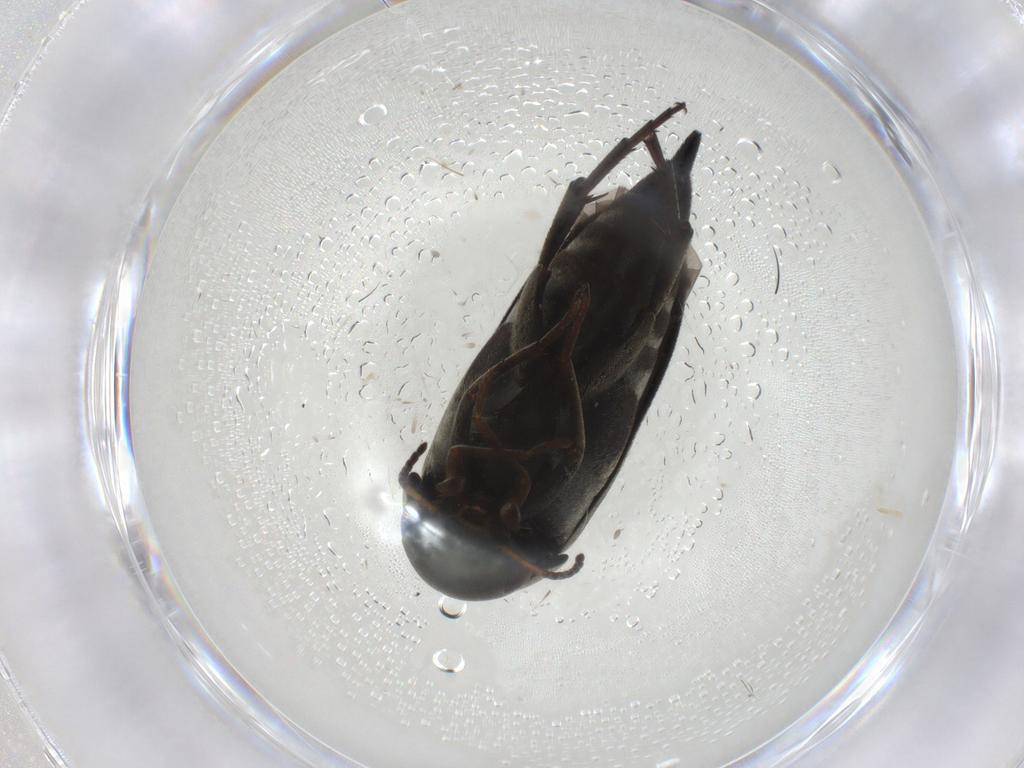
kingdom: Animalia
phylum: Arthropoda
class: Insecta
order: Coleoptera
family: Mordellidae
